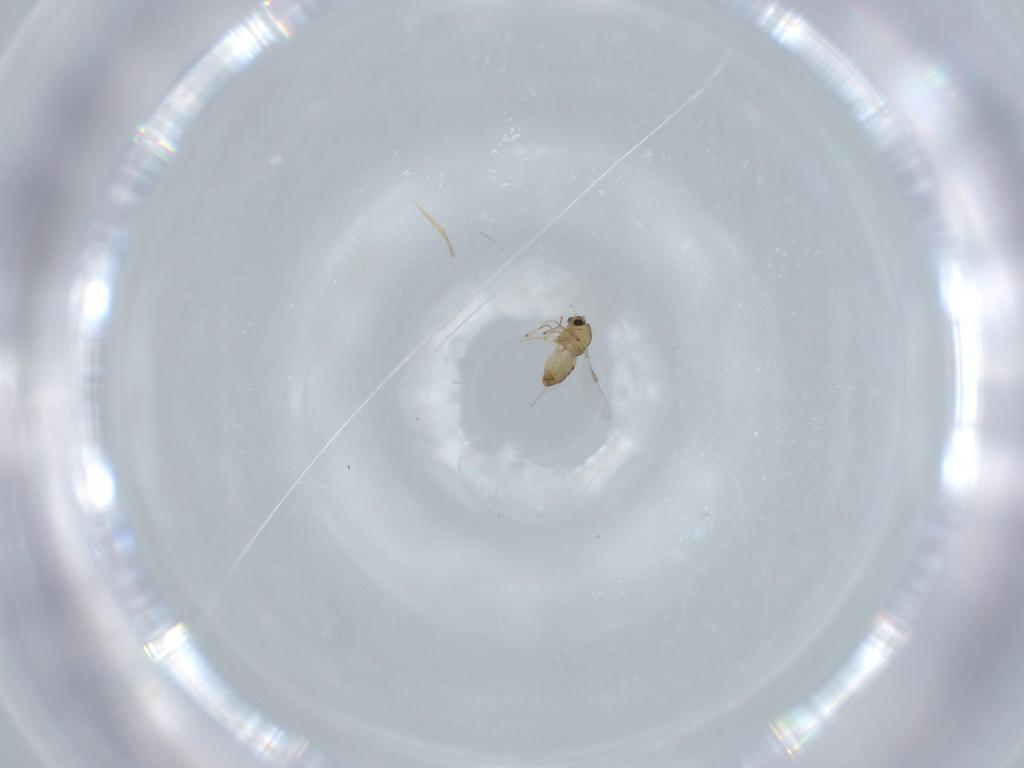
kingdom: Animalia
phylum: Arthropoda
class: Insecta
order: Diptera
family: Chironomidae
